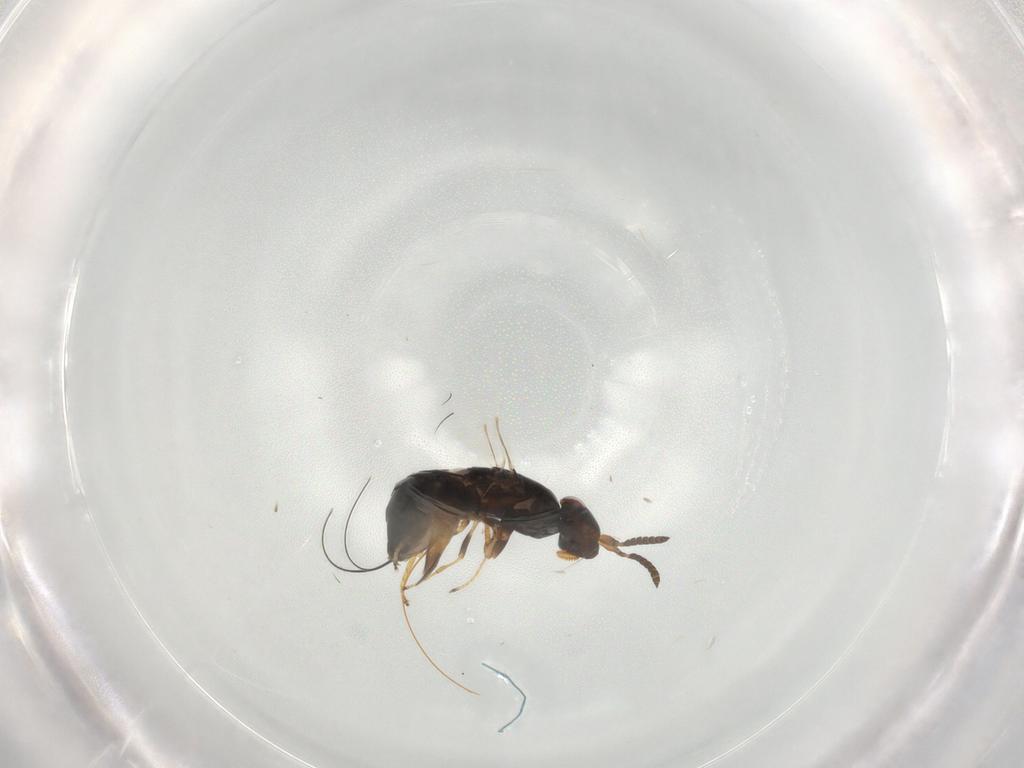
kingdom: Animalia
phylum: Arthropoda
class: Insecta
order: Hymenoptera
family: Agaonidae
